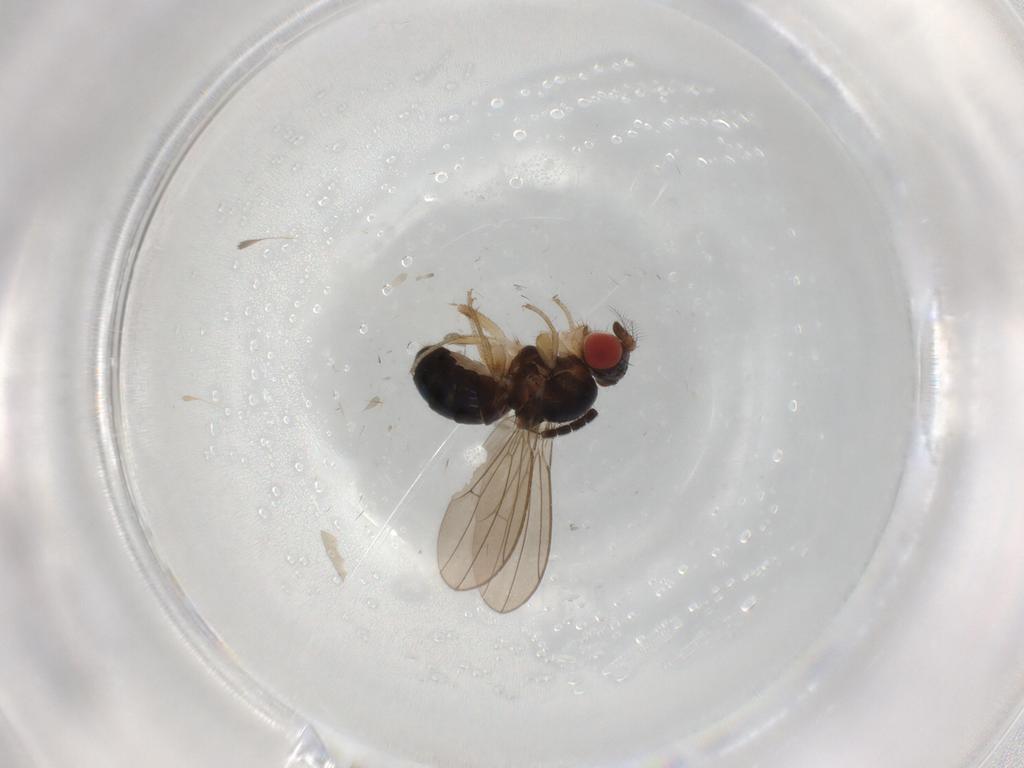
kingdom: Animalia
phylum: Arthropoda
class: Insecta
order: Diptera
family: Drosophilidae
